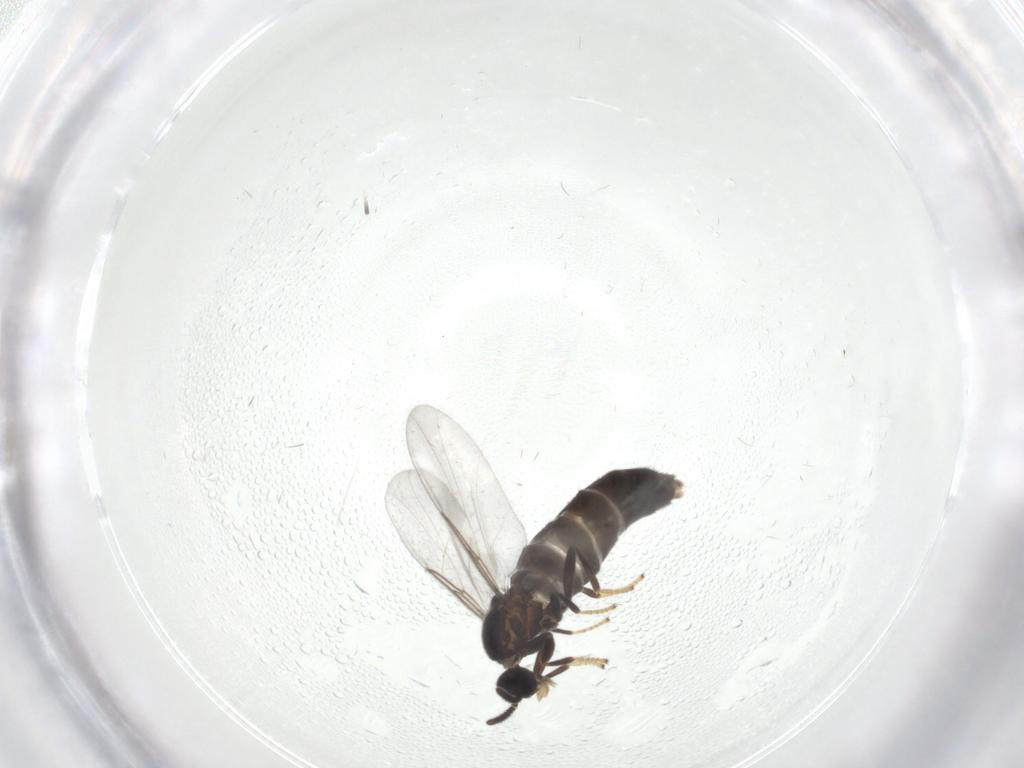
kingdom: Animalia
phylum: Arthropoda
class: Insecta
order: Diptera
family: Scatopsidae
